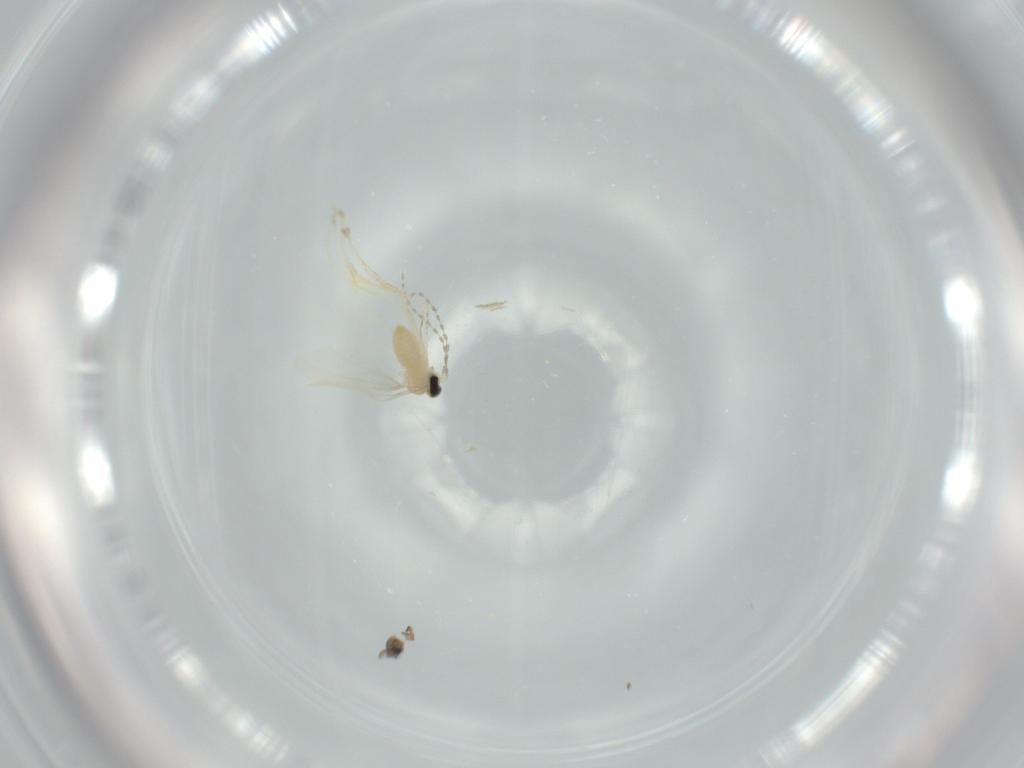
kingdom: Animalia
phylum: Arthropoda
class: Insecta
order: Diptera
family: Cecidomyiidae
